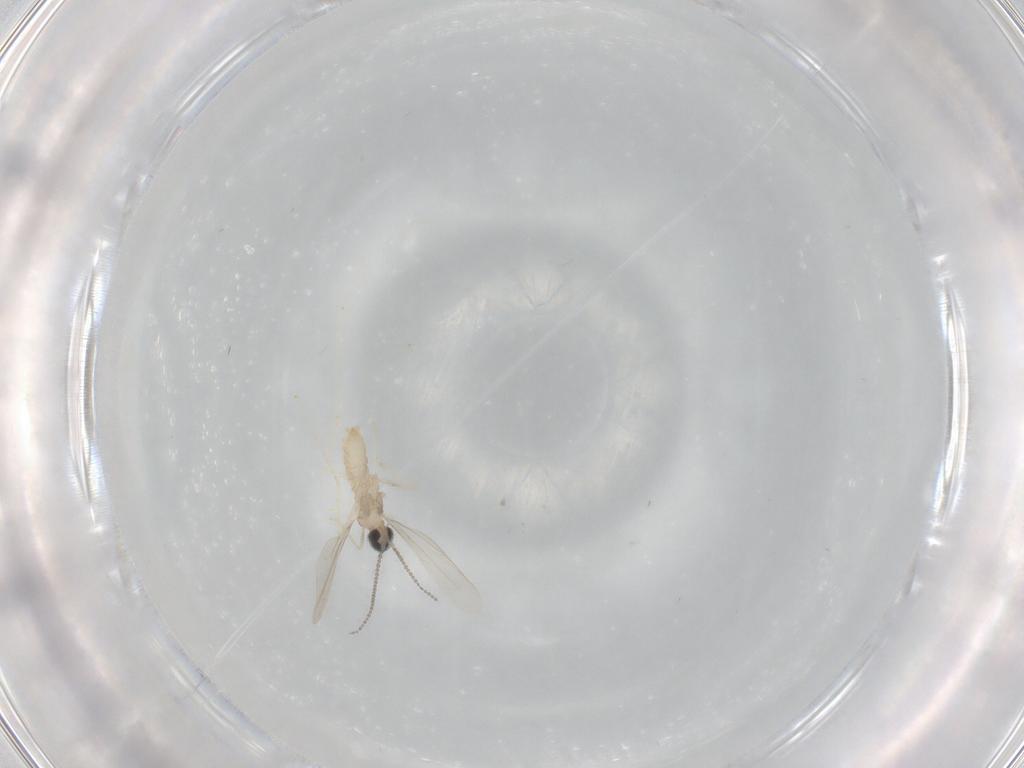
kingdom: Animalia
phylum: Arthropoda
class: Insecta
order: Diptera
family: Cecidomyiidae
